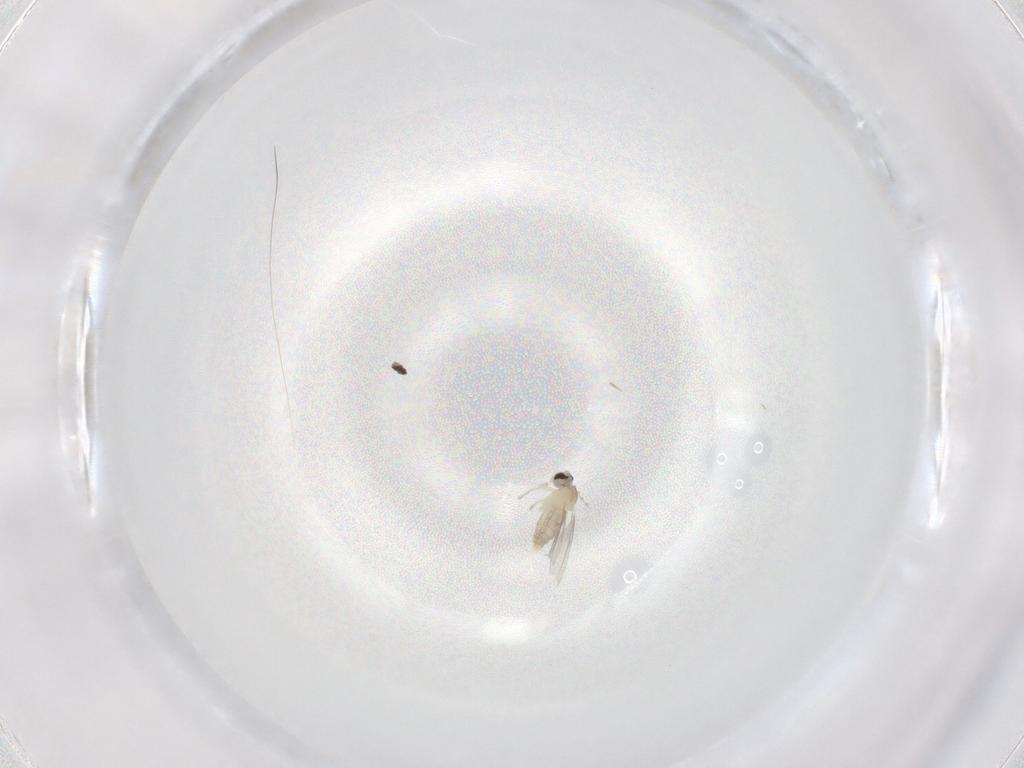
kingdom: Animalia
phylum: Arthropoda
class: Insecta
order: Diptera
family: Cecidomyiidae
